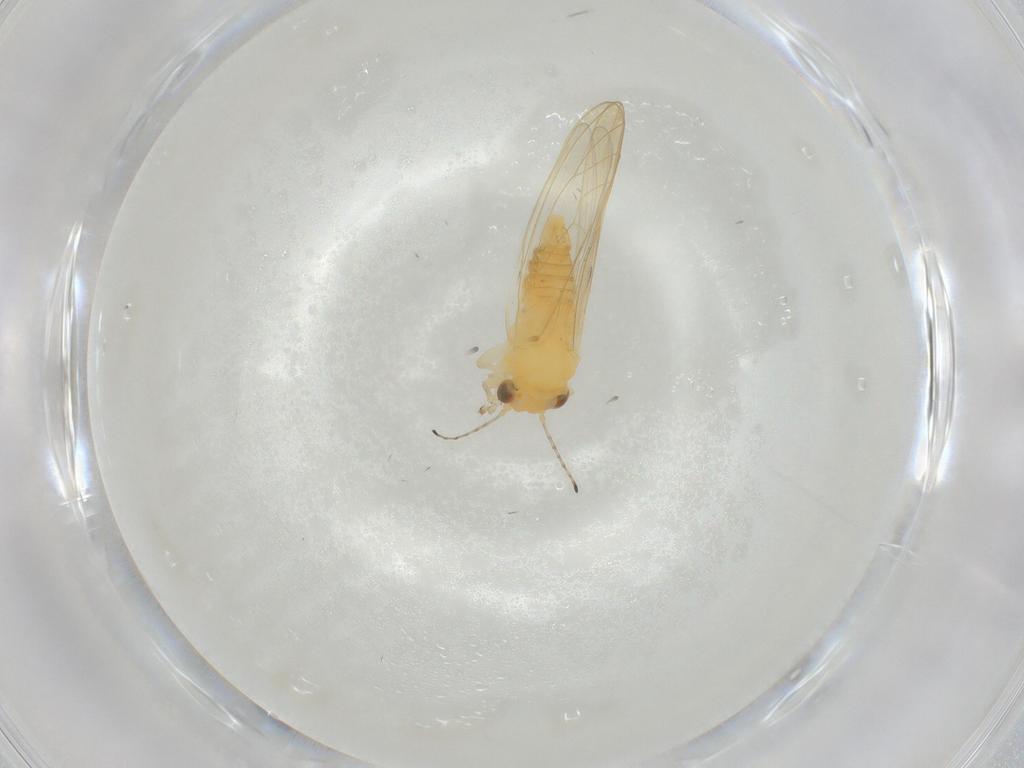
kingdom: Animalia
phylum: Arthropoda
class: Insecta
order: Hemiptera
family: Aphalaridae
